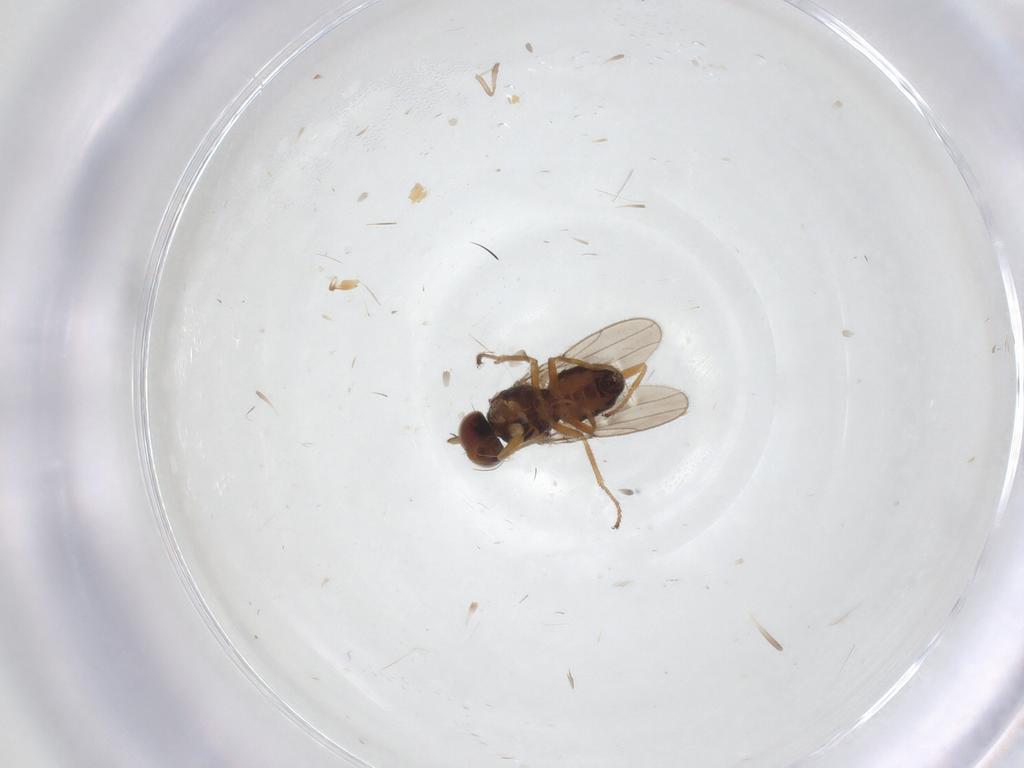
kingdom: Animalia
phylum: Arthropoda
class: Insecta
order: Diptera
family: Ephydridae
